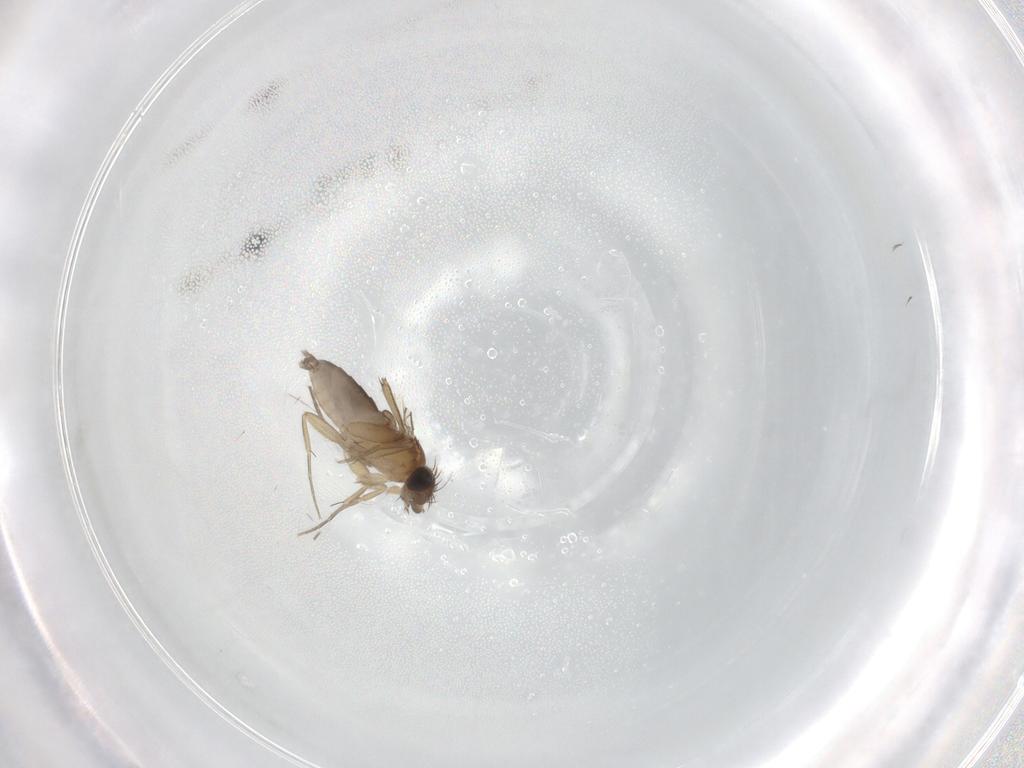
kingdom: Animalia
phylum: Arthropoda
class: Insecta
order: Diptera
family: Phoridae
